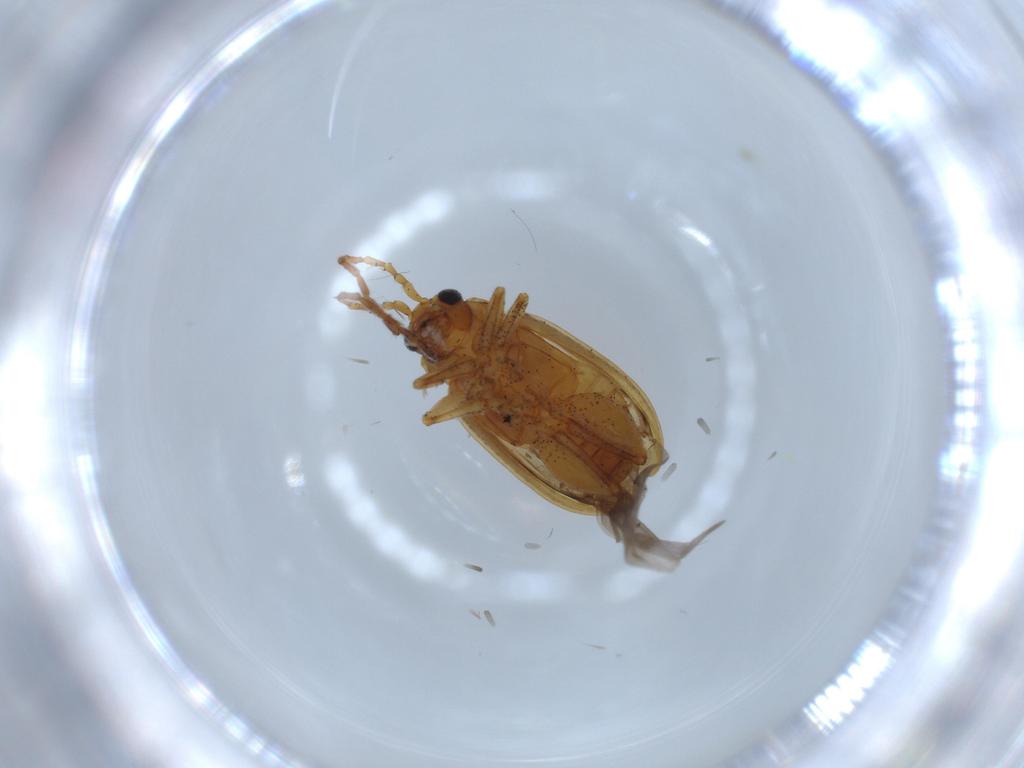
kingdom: Animalia
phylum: Arthropoda
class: Insecta
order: Coleoptera
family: Chrysomelidae
